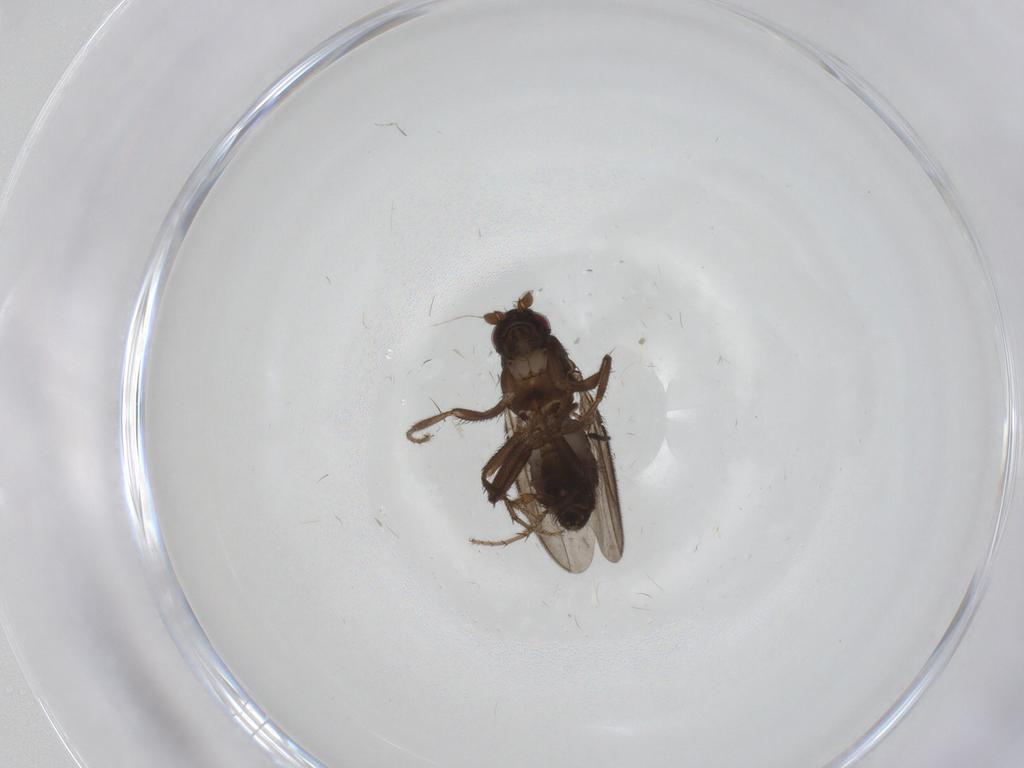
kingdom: Animalia
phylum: Arthropoda
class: Insecta
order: Diptera
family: Sphaeroceridae
